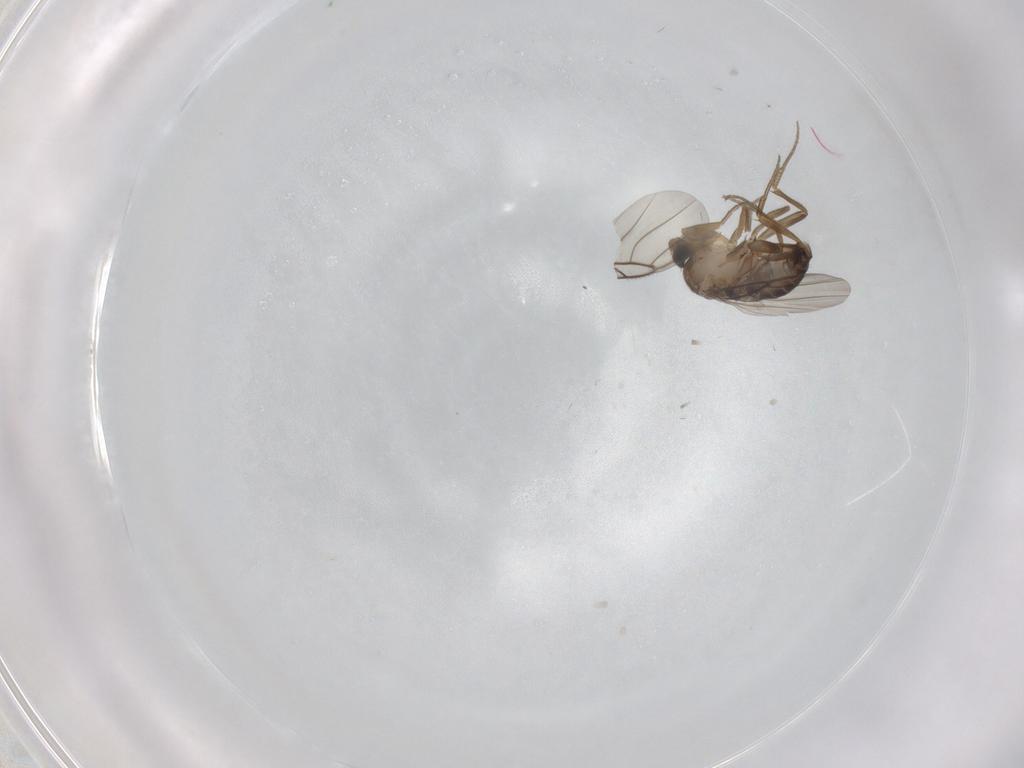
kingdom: Animalia
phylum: Arthropoda
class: Insecta
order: Diptera
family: Phoridae
